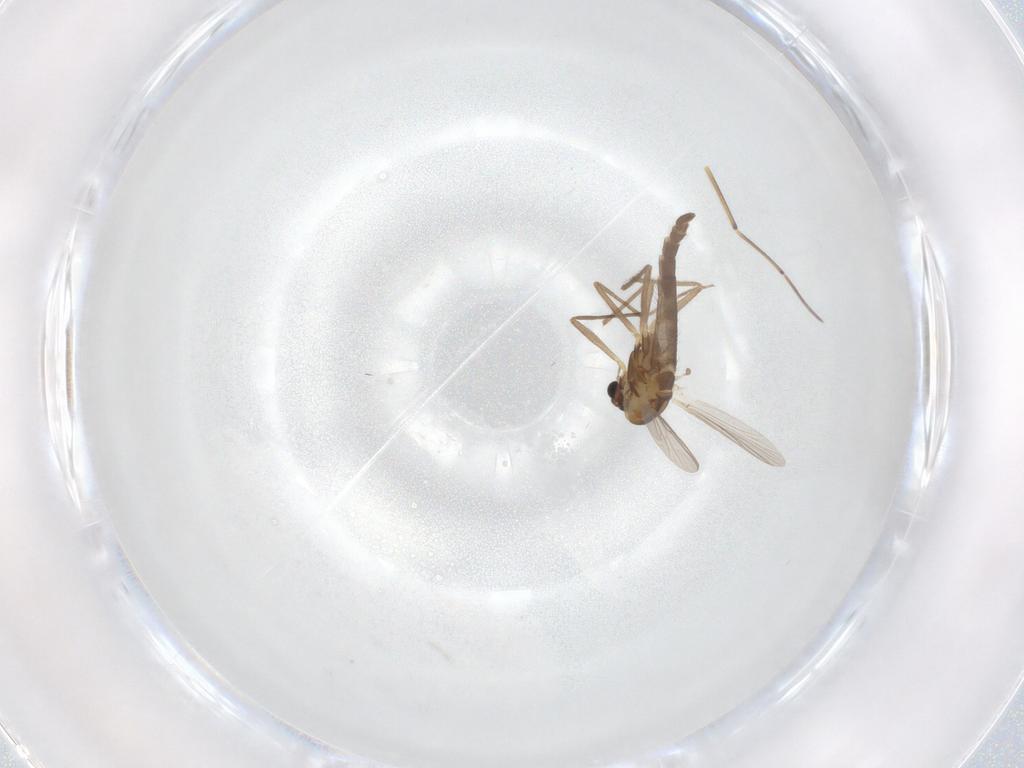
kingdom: Animalia
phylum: Arthropoda
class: Insecta
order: Diptera
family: Chironomidae
